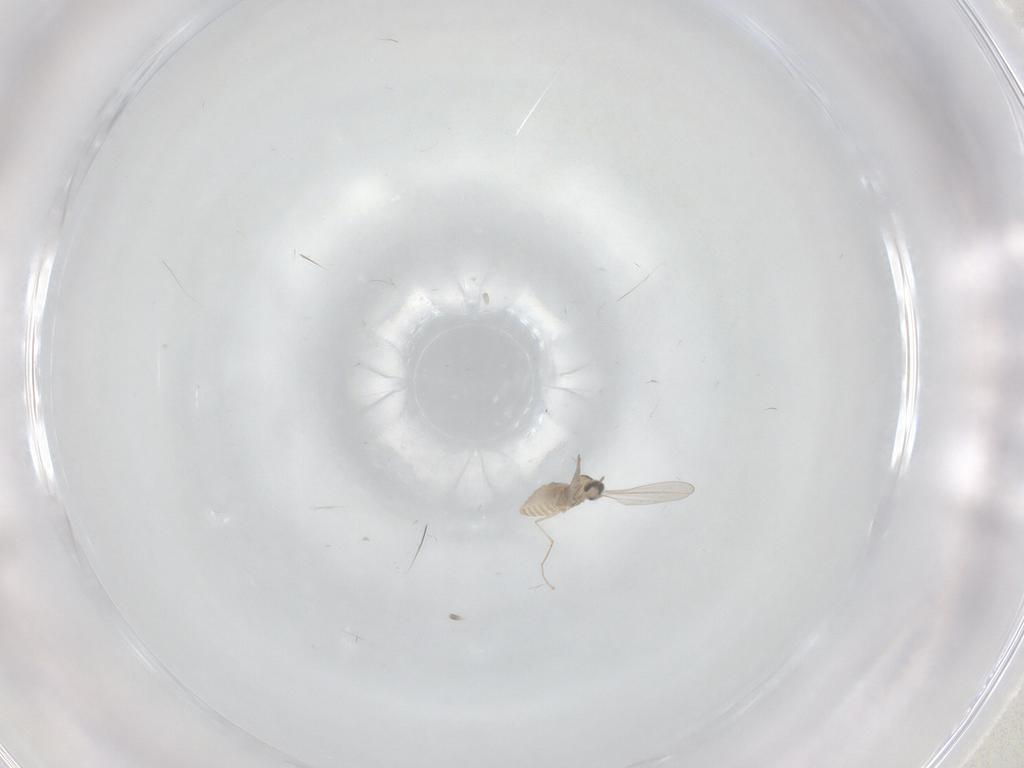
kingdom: Animalia
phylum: Arthropoda
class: Insecta
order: Diptera
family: Cecidomyiidae
